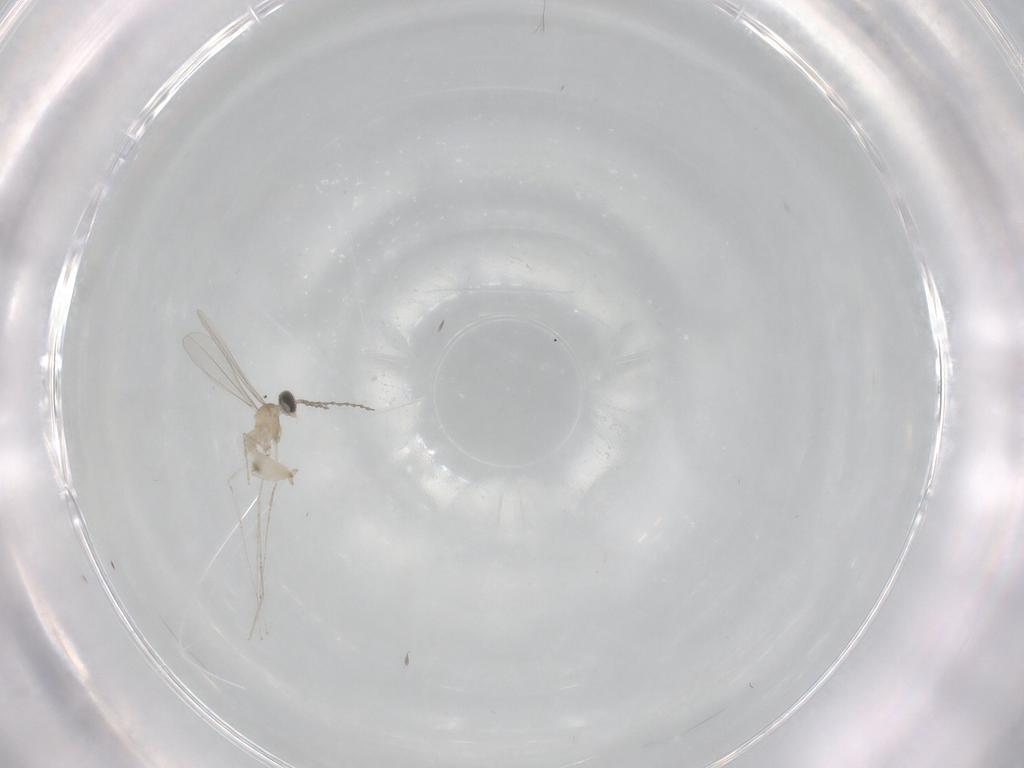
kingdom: Animalia
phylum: Arthropoda
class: Insecta
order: Diptera
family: Cecidomyiidae
